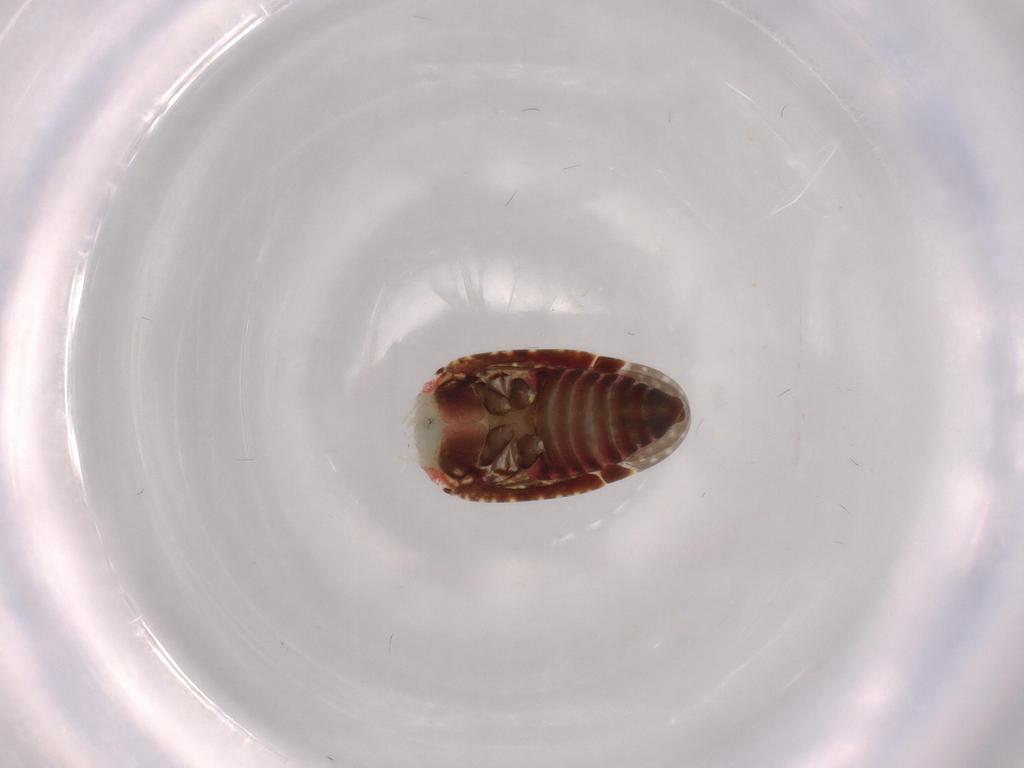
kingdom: Animalia
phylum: Arthropoda
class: Insecta
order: Hemiptera
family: Miridae
